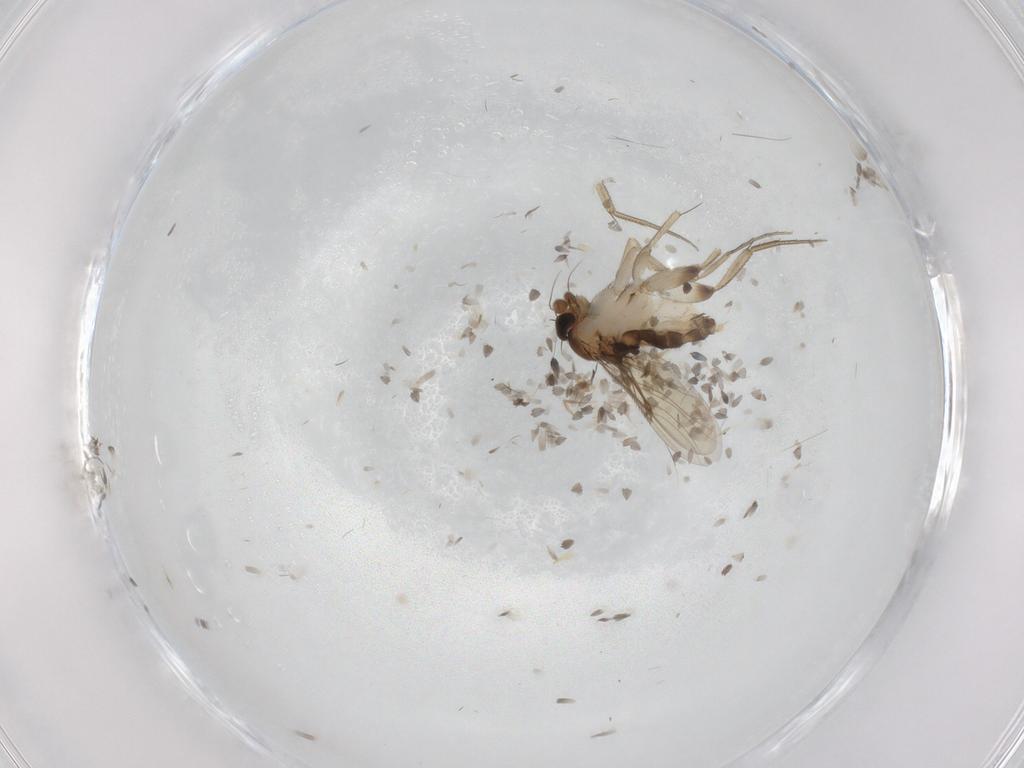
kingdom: Animalia
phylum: Arthropoda
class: Insecta
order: Diptera
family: Phoridae
